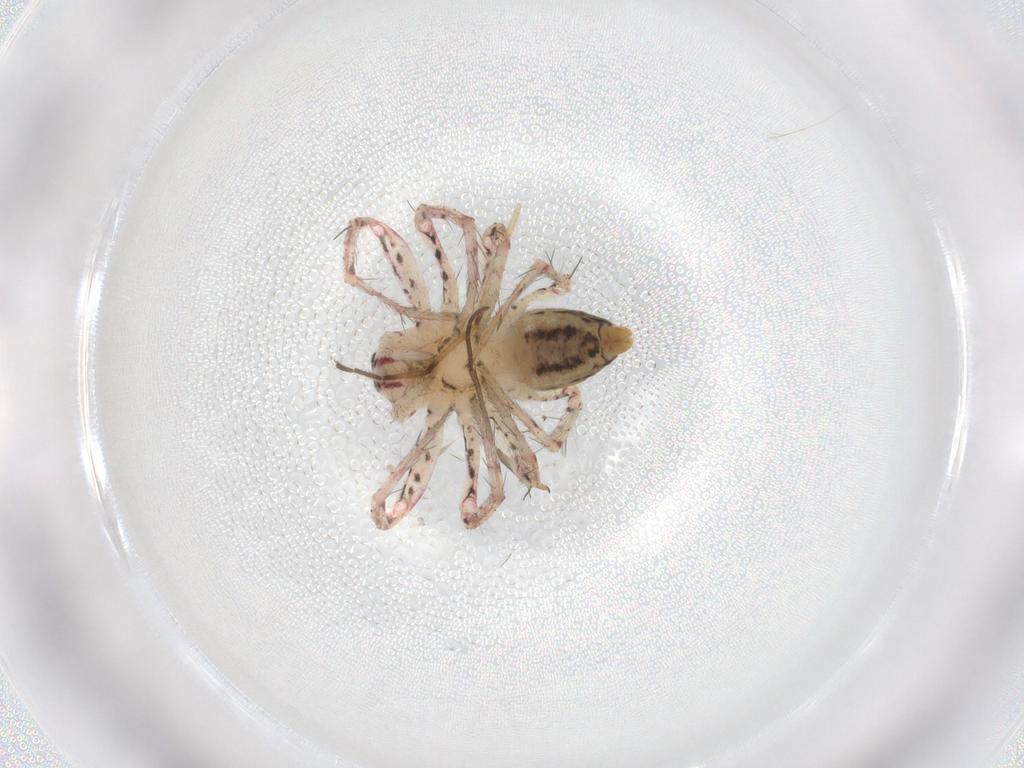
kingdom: Animalia
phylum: Arthropoda
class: Arachnida
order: Araneae
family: Oxyopidae
